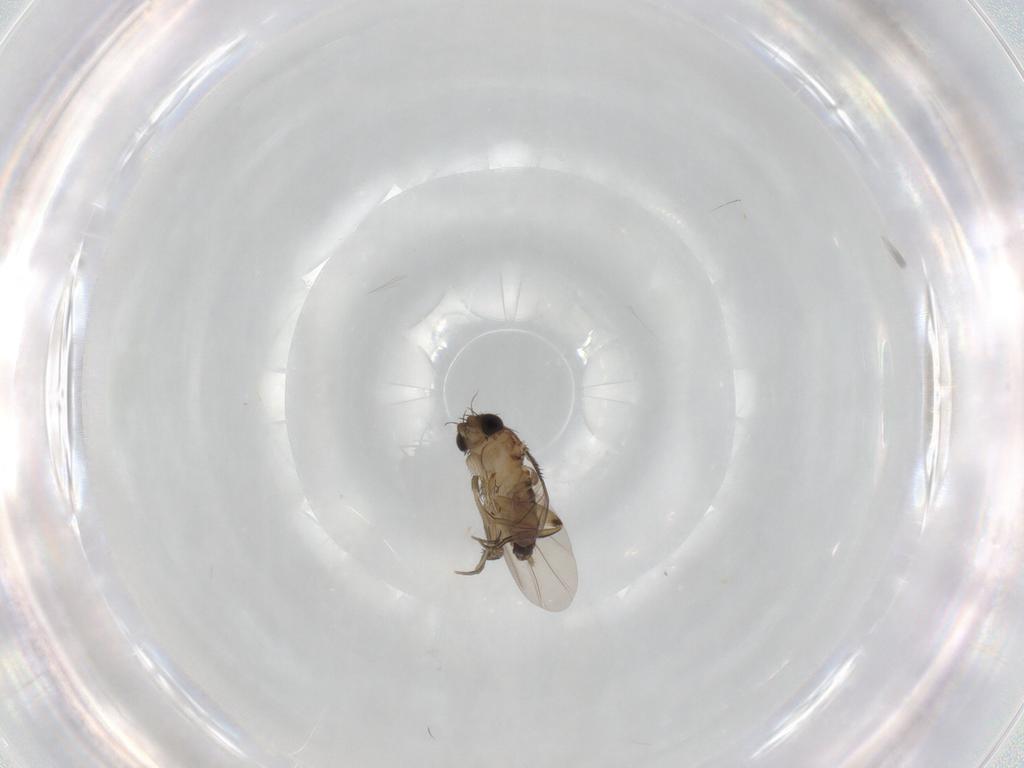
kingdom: Animalia
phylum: Arthropoda
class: Insecta
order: Diptera
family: Phoridae
